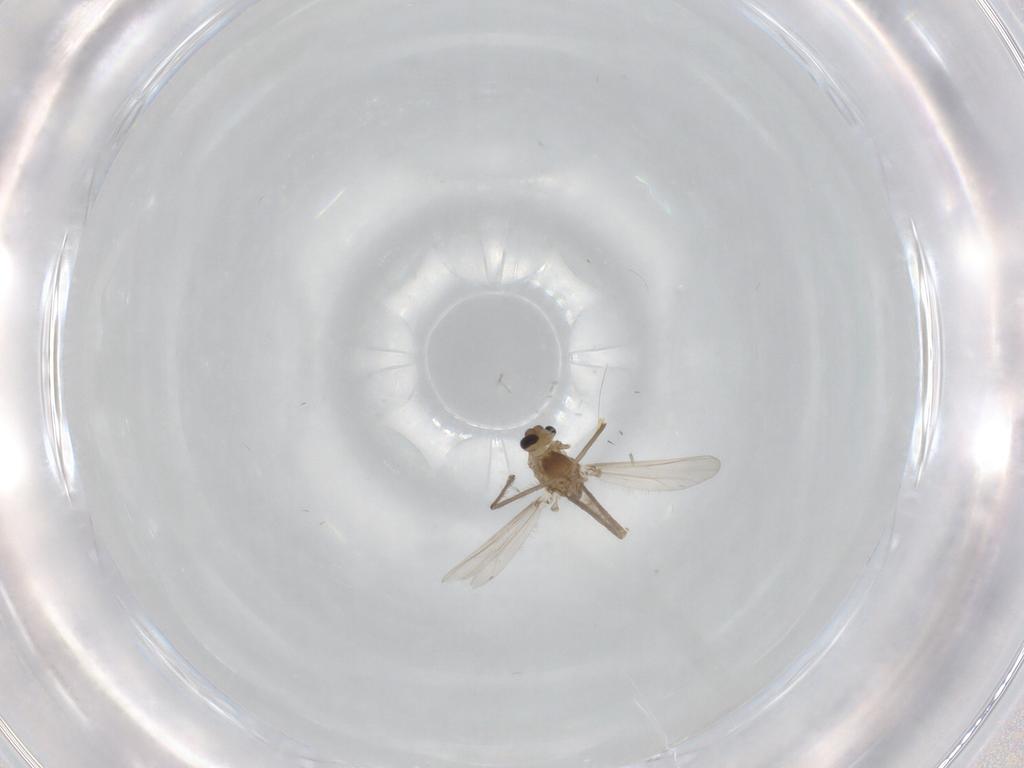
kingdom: Animalia
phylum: Arthropoda
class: Insecta
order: Diptera
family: Chironomidae
